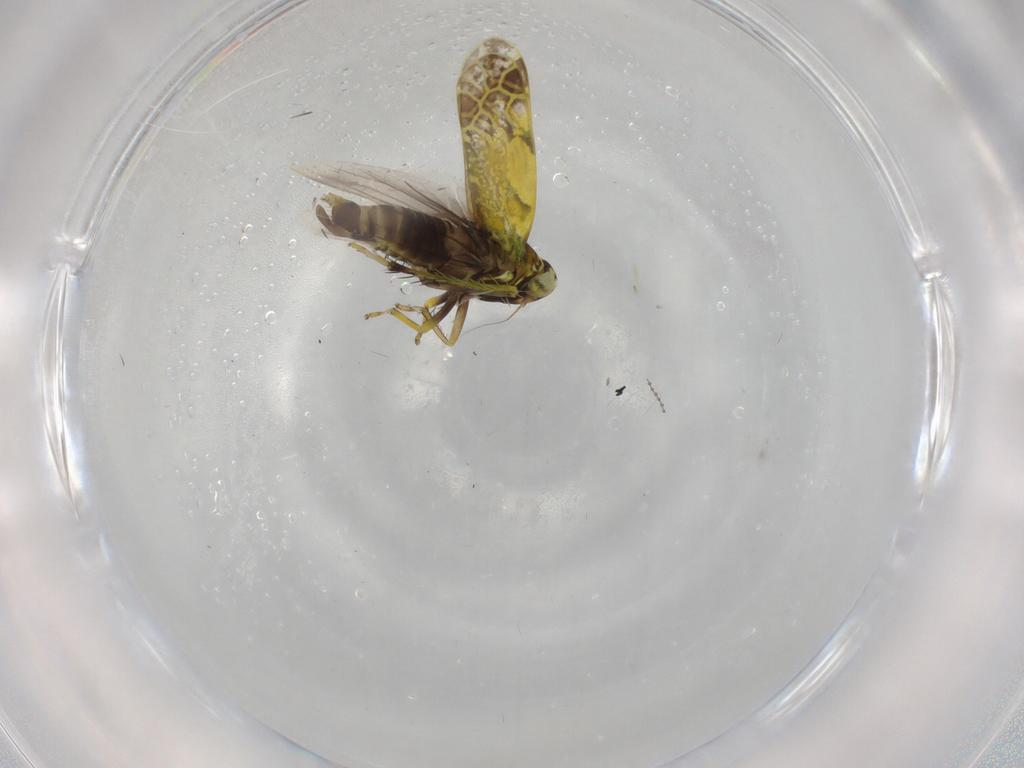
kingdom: Animalia
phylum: Arthropoda
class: Insecta
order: Hemiptera
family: Cicadellidae
